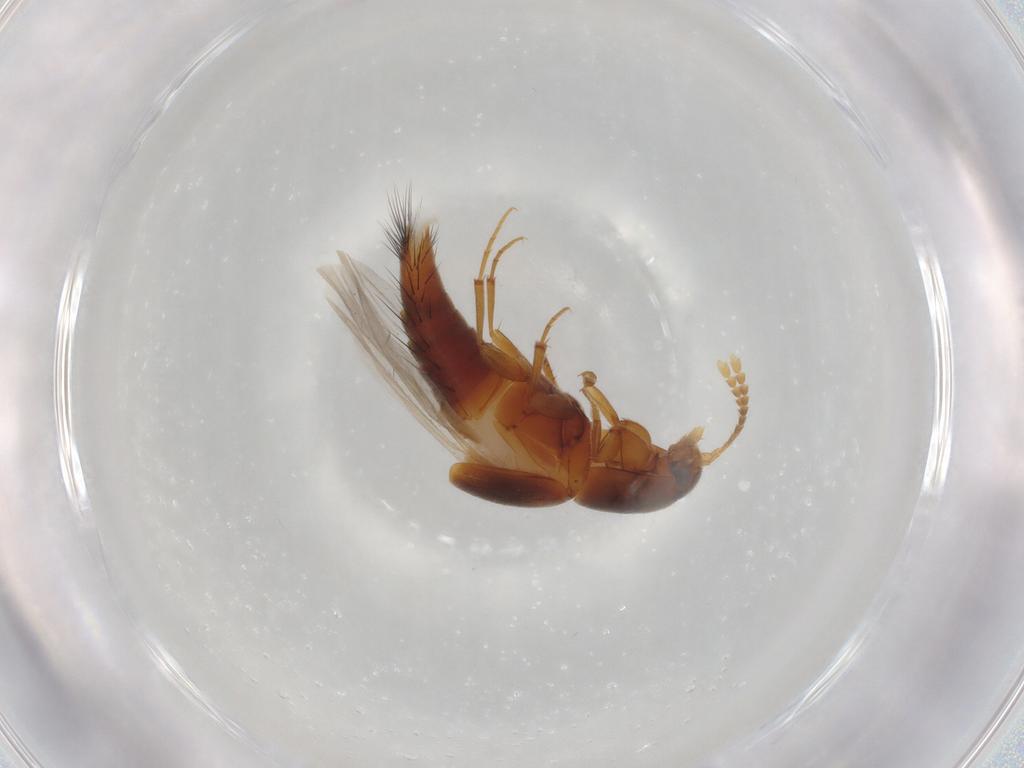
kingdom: Animalia
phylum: Arthropoda
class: Insecta
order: Coleoptera
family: Staphylinidae
